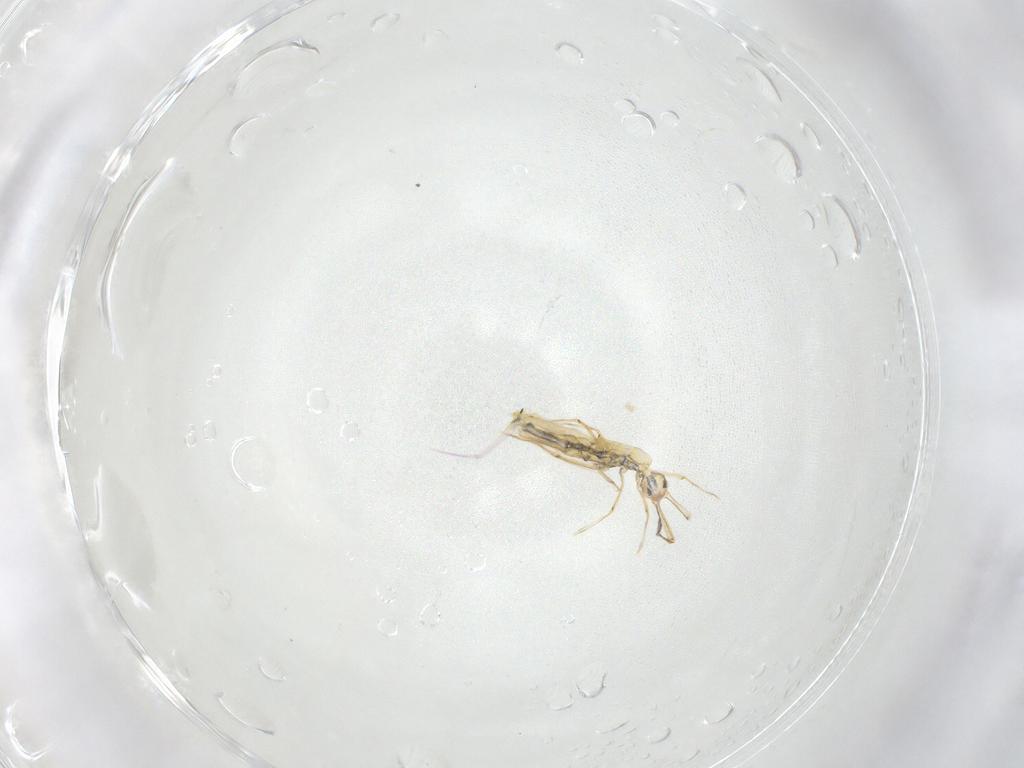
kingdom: Animalia
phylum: Arthropoda
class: Collembola
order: Entomobryomorpha
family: Entomobryidae
